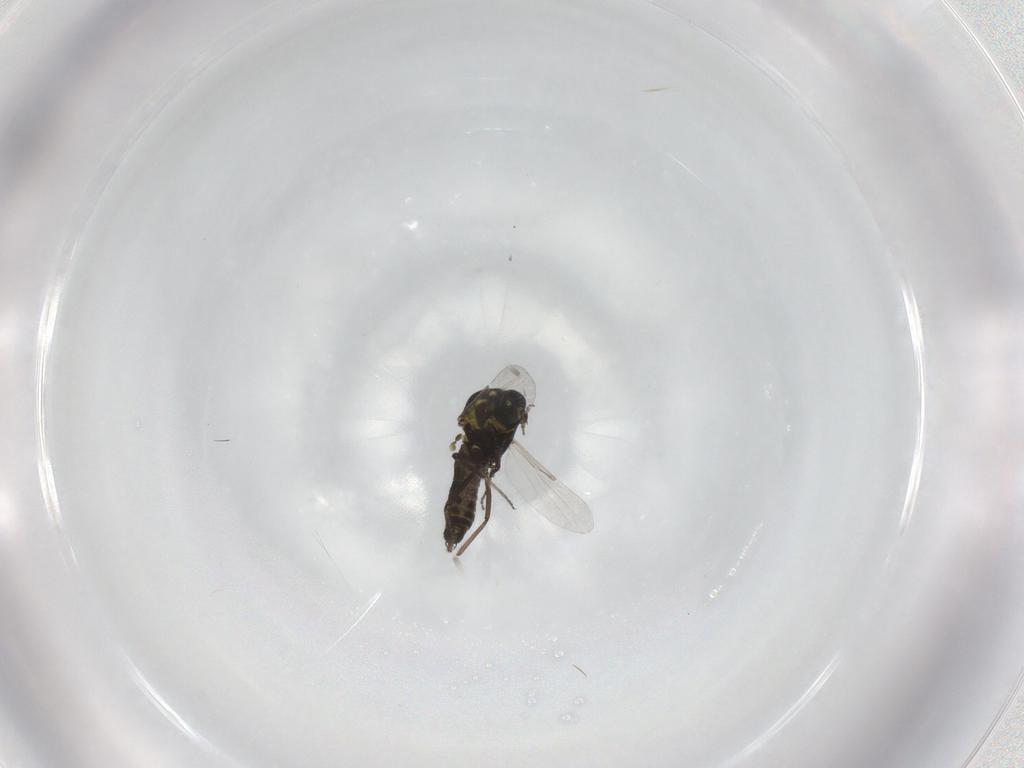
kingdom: Animalia
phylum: Arthropoda
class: Insecta
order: Diptera
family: Ceratopogonidae
